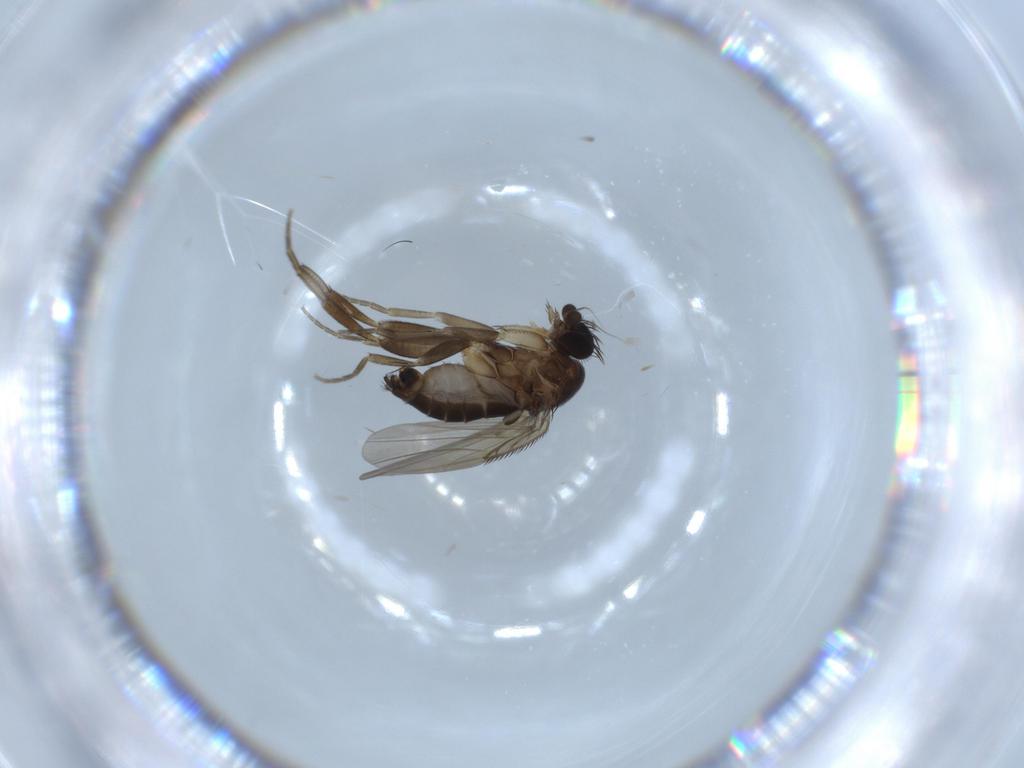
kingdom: Animalia
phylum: Arthropoda
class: Insecta
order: Diptera
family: Phoridae
